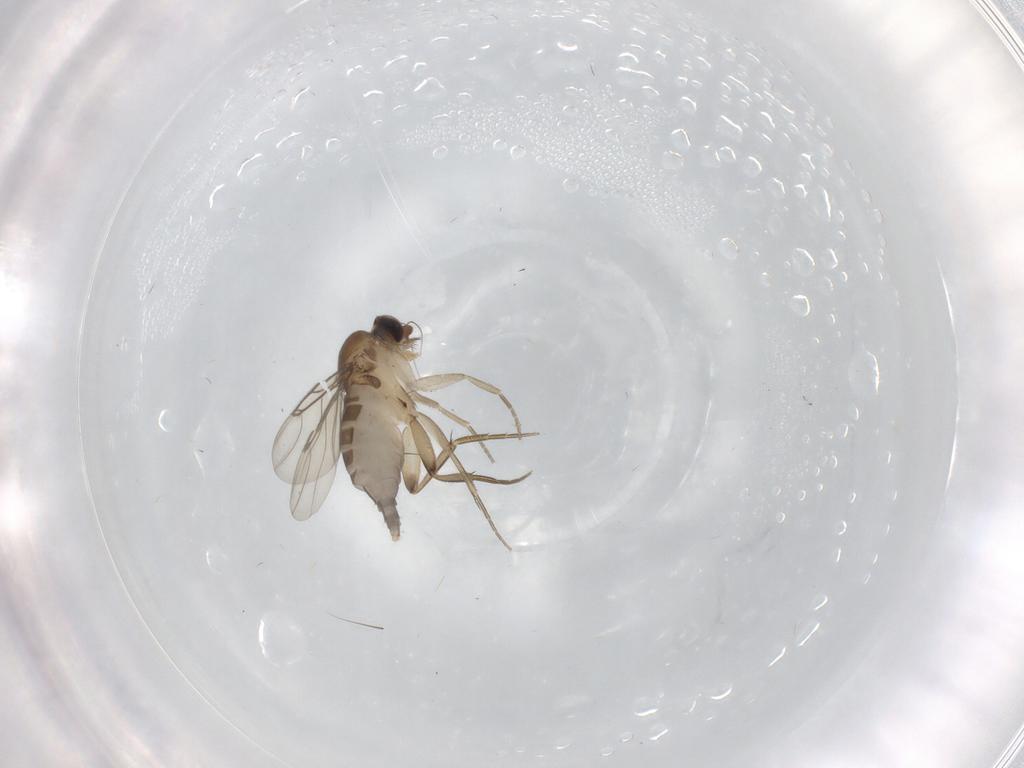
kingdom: Animalia
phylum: Arthropoda
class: Insecta
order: Diptera
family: Phoridae
